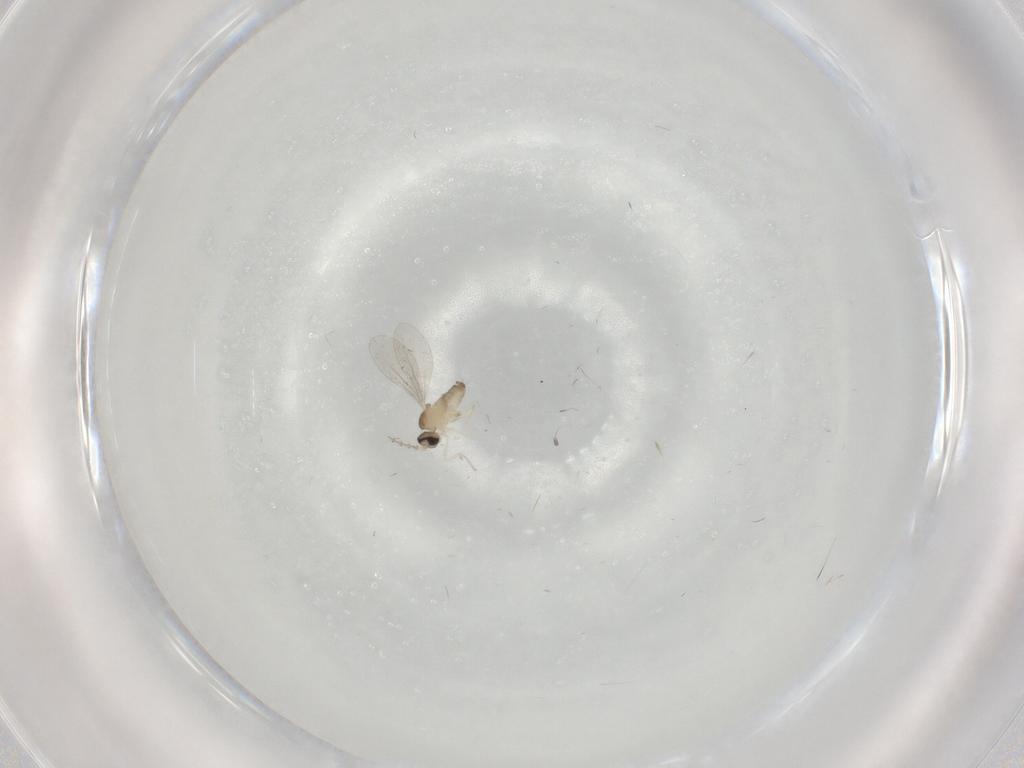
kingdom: Animalia
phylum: Arthropoda
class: Insecta
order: Diptera
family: Cecidomyiidae
